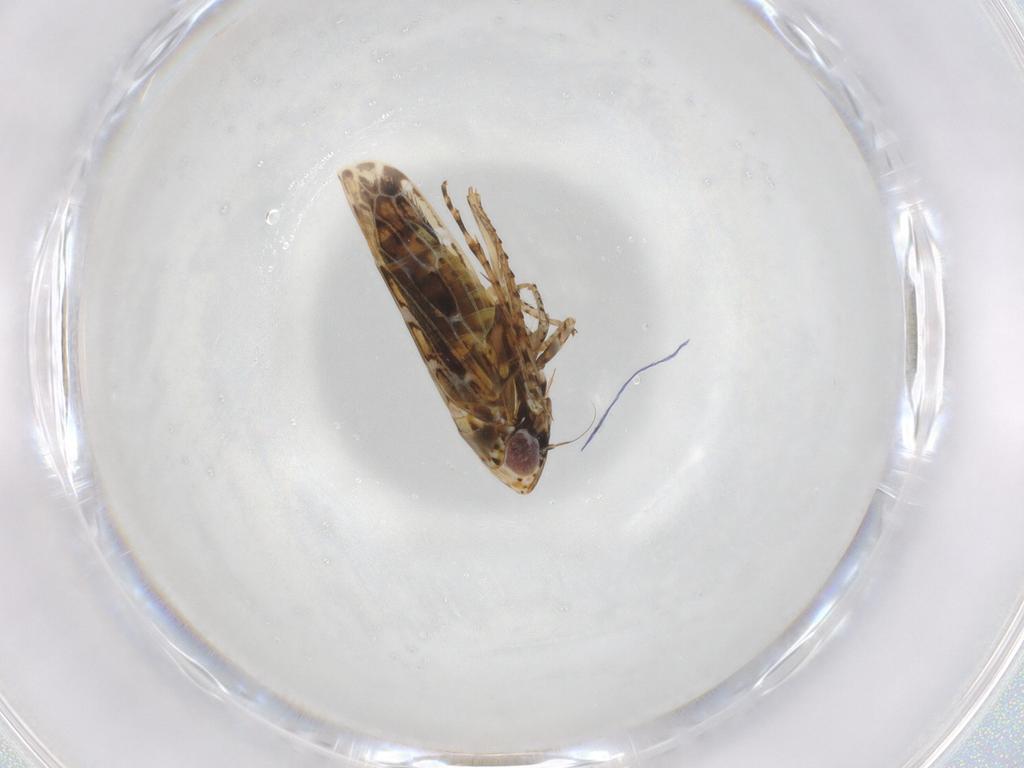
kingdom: Animalia
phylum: Arthropoda
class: Insecta
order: Hemiptera
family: Cicadellidae
